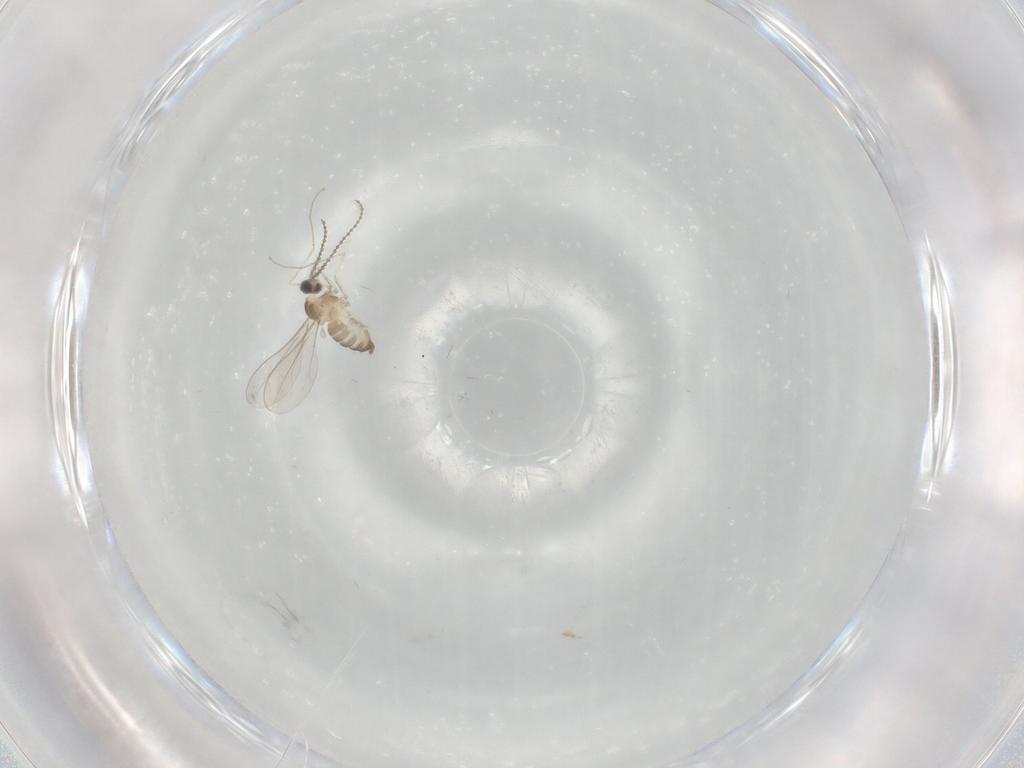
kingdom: Animalia
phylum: Arthropoda
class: Insecta
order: Diptera
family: Cecidomyiidae
